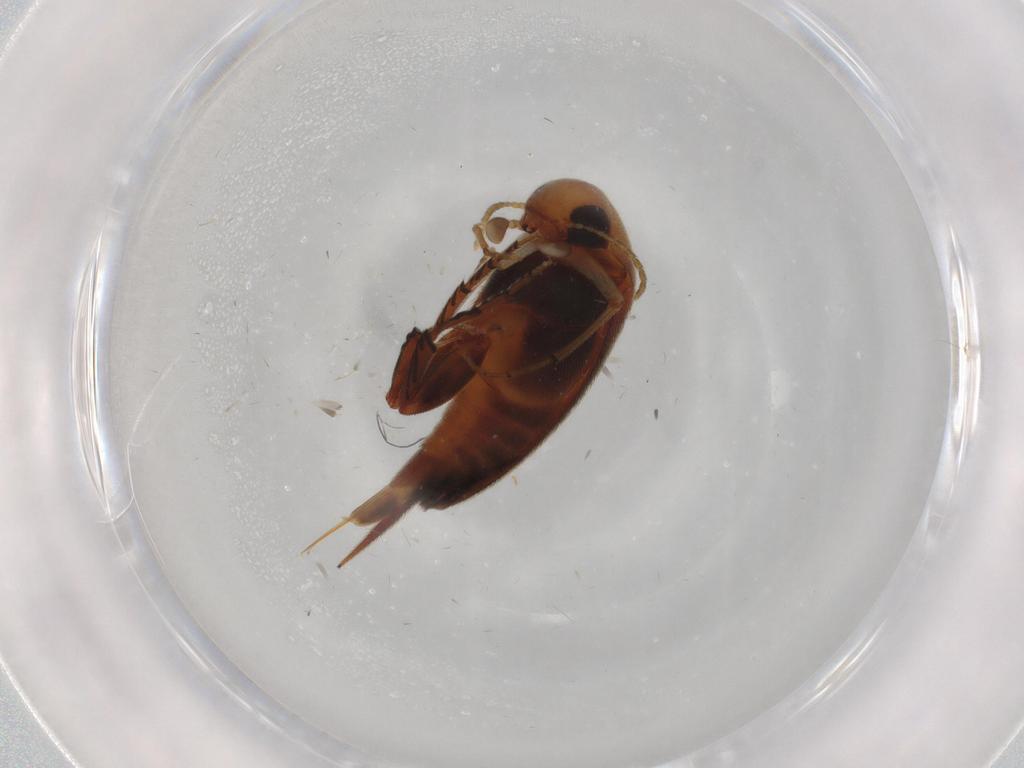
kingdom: Animalia
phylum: Arthropoda
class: Insecta
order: Coleoptera
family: Mordellidae
